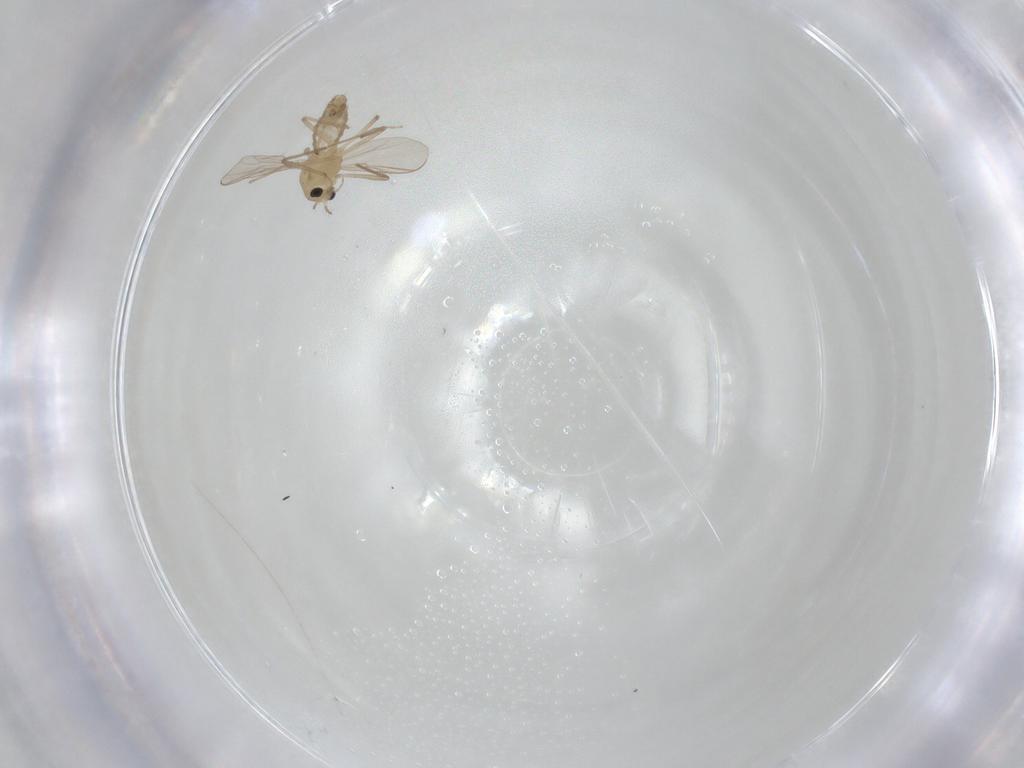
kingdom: Animalia
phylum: Arthropoda
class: Insecta
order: Diptera
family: Chironomidae
